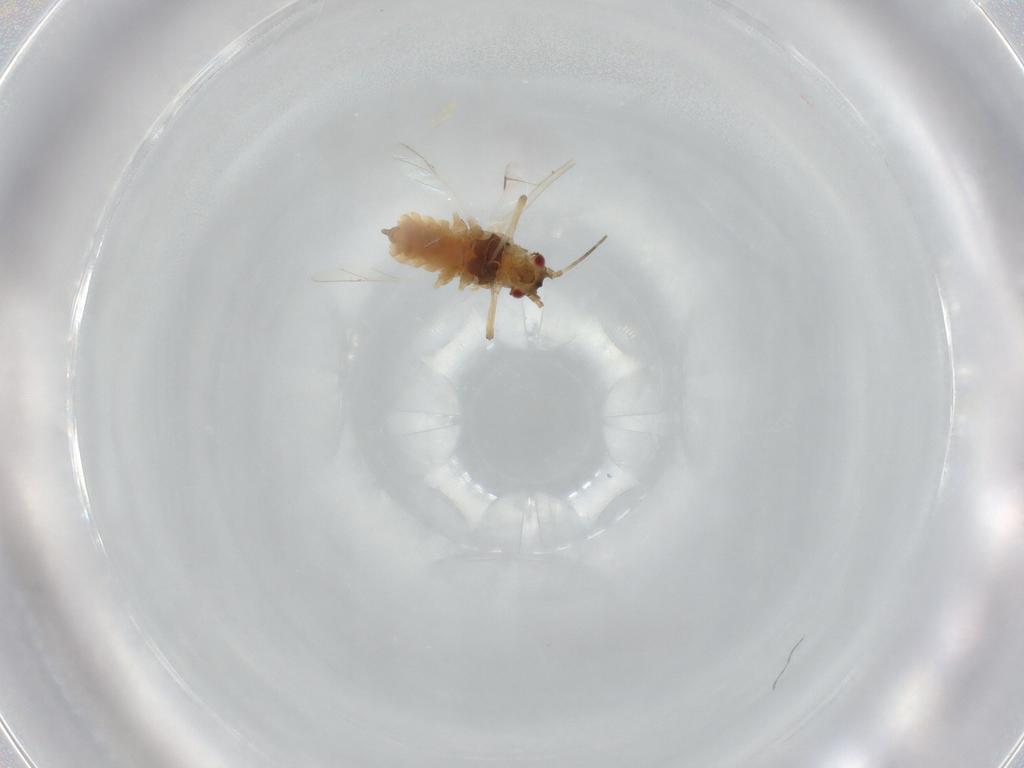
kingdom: Animalia
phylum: Arthropoda
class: Insecta
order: Hemiptera
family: Aphididae
